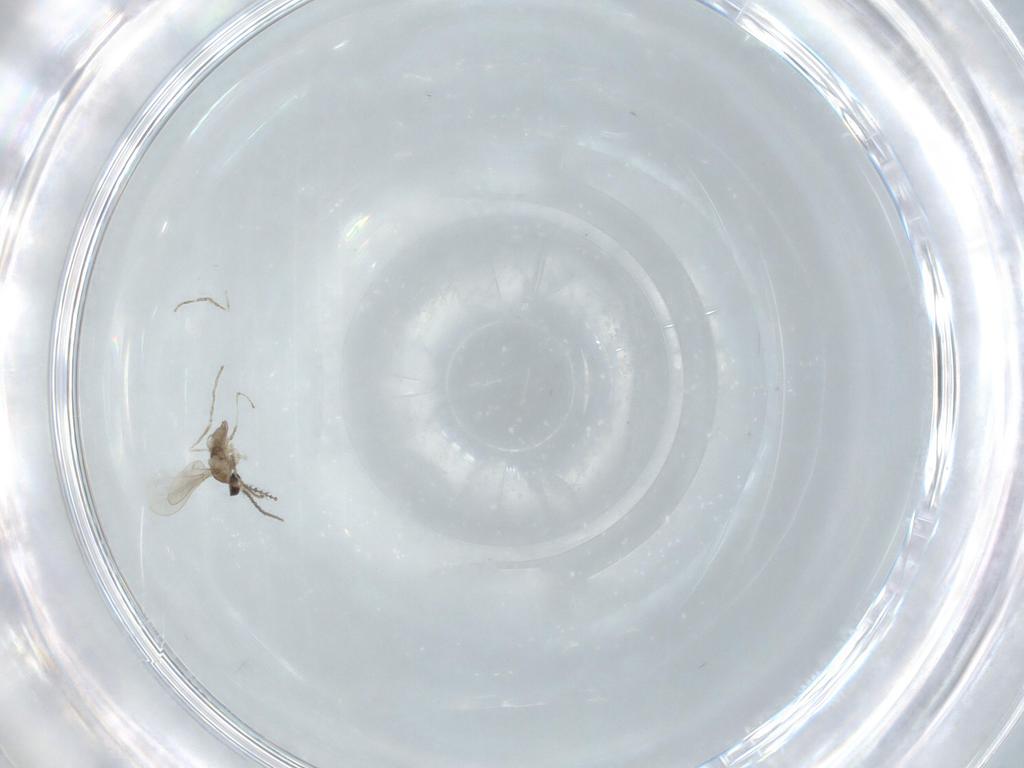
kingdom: Animalia
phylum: Arthropoda
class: Insecta
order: Diptera
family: Cecidomyiidae
